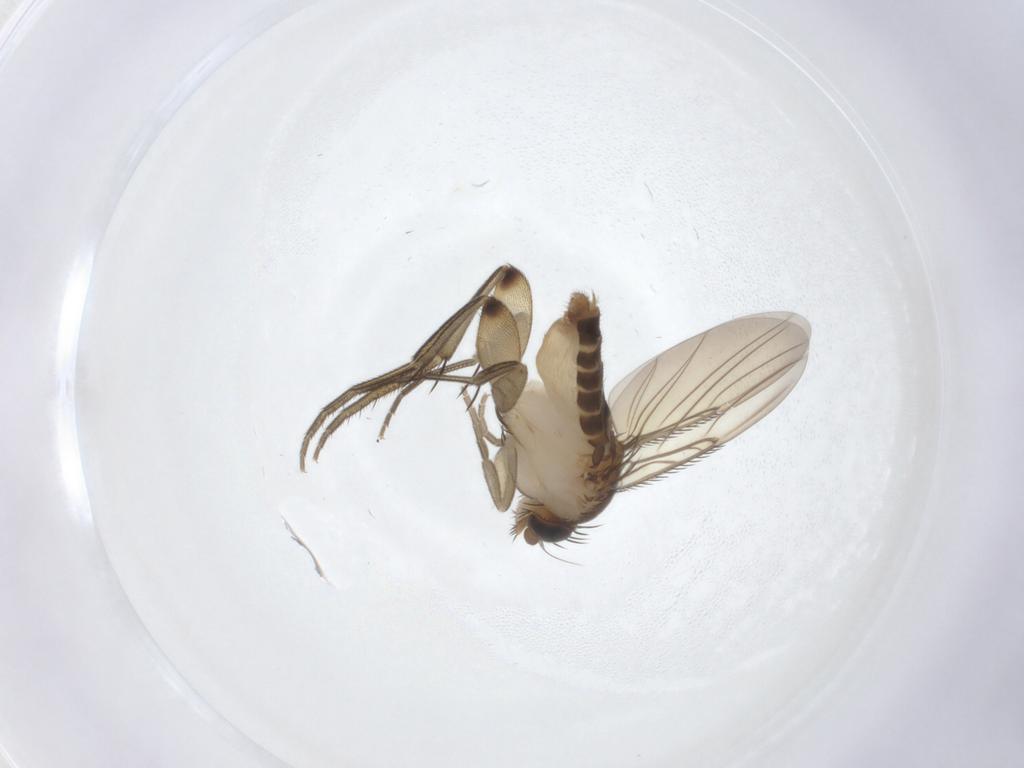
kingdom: Animalia
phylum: Arthropoda
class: Insecta
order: Diptera
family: Phoridae
